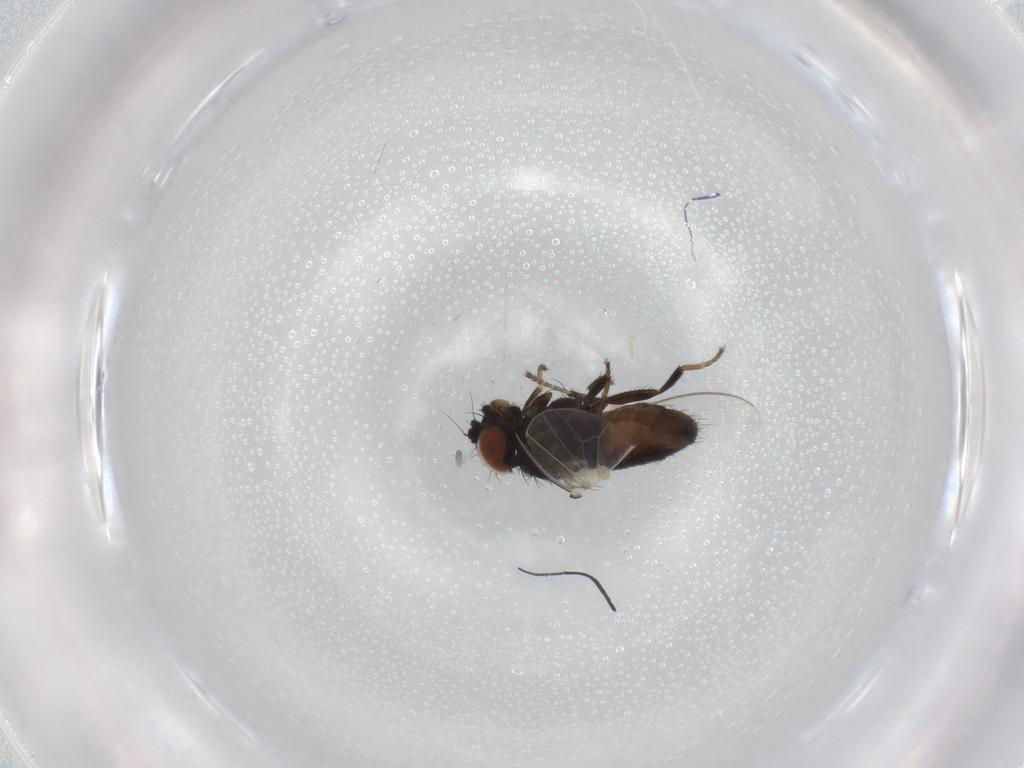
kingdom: Animalia
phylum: Arthropoda
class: Insecta
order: Diptera
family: Milichiidae
